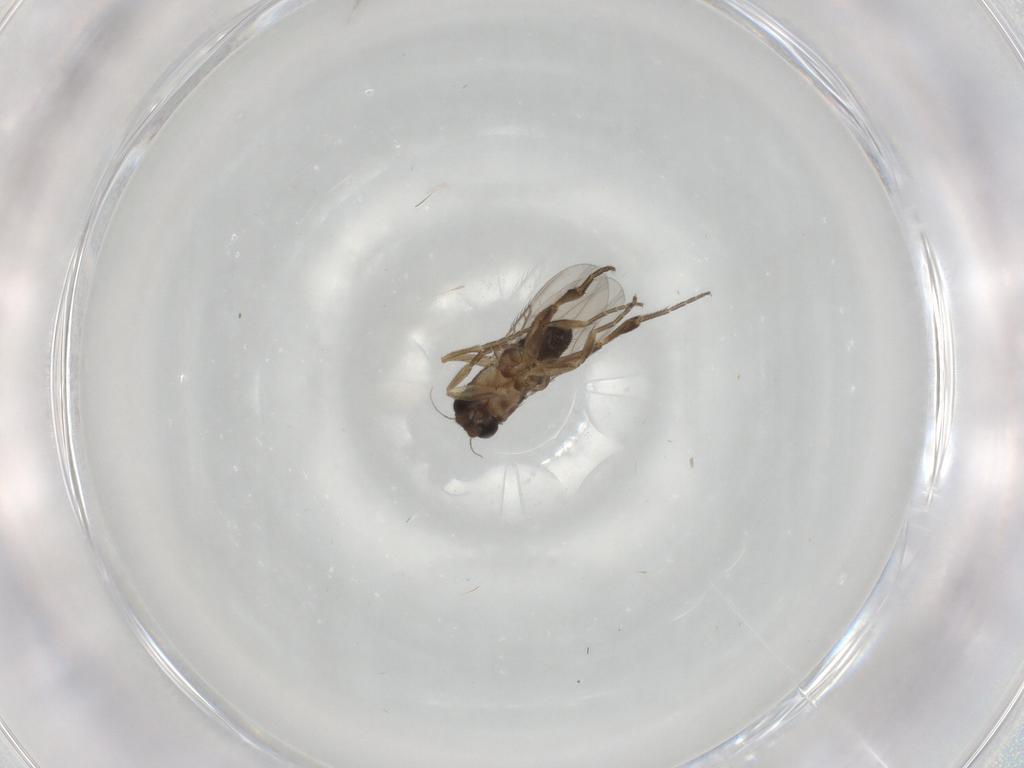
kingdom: Animalia
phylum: Arthropoda
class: Insecta
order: Diptera
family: Phoridae
